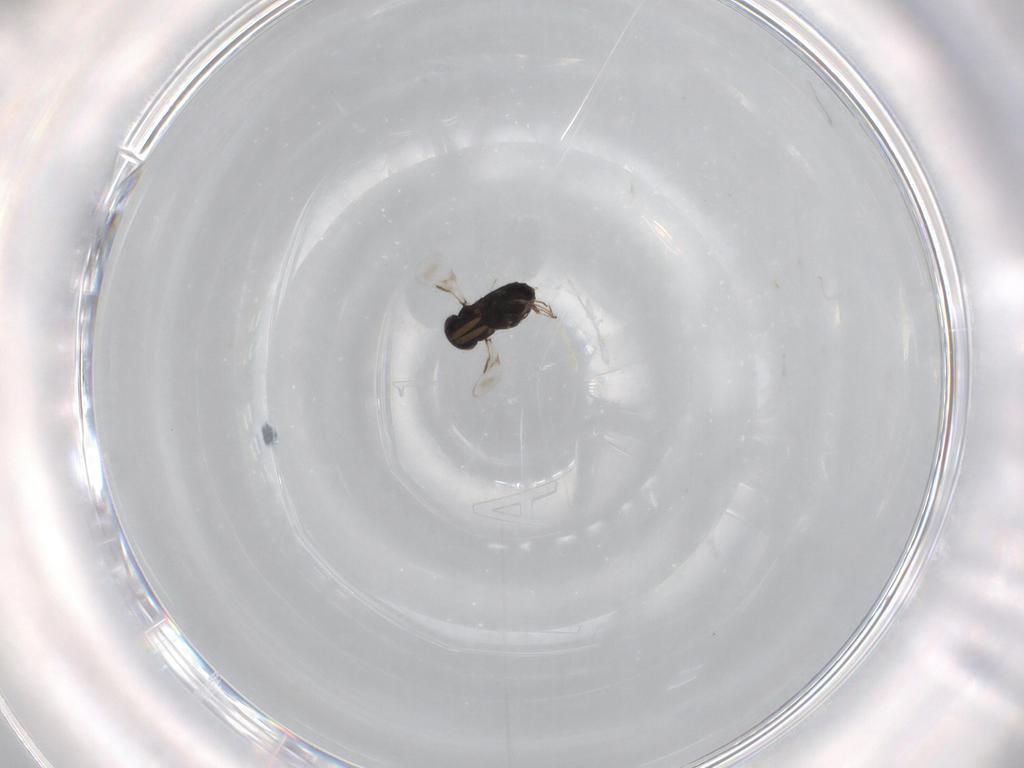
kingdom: Animalia
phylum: Arthropoda
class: Insecta
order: Hymenoptera
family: Signiphoridae
